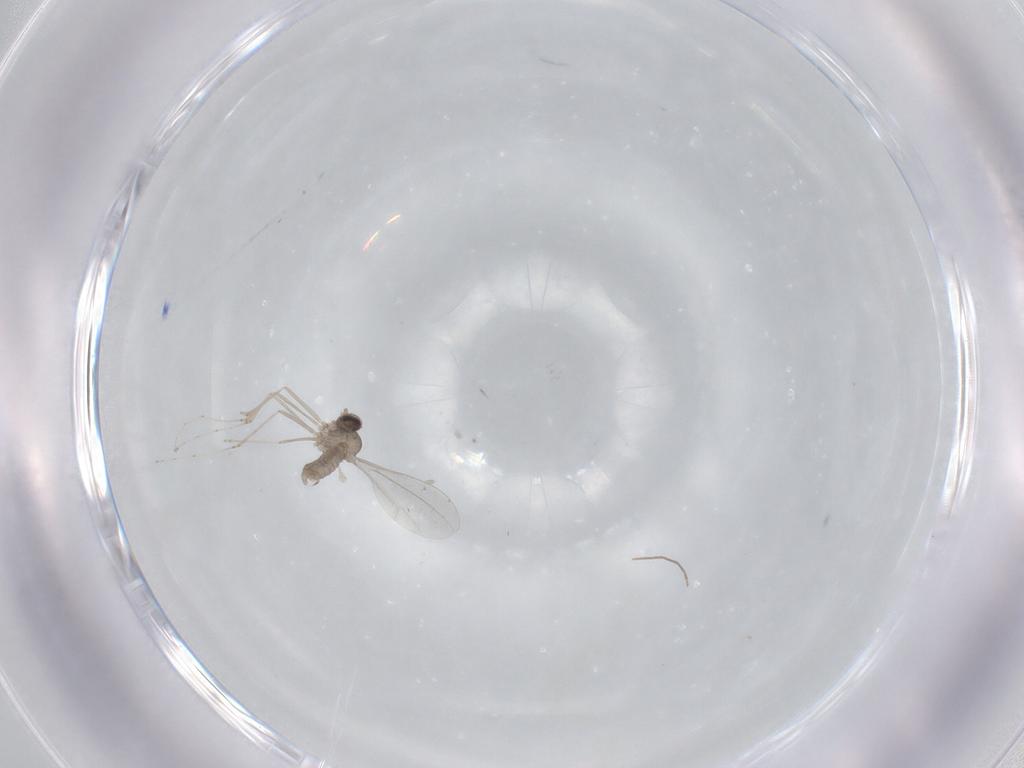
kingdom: Animalia
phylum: Arthropoda
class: Insecta
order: Diptera
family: Cecidomyiidae
